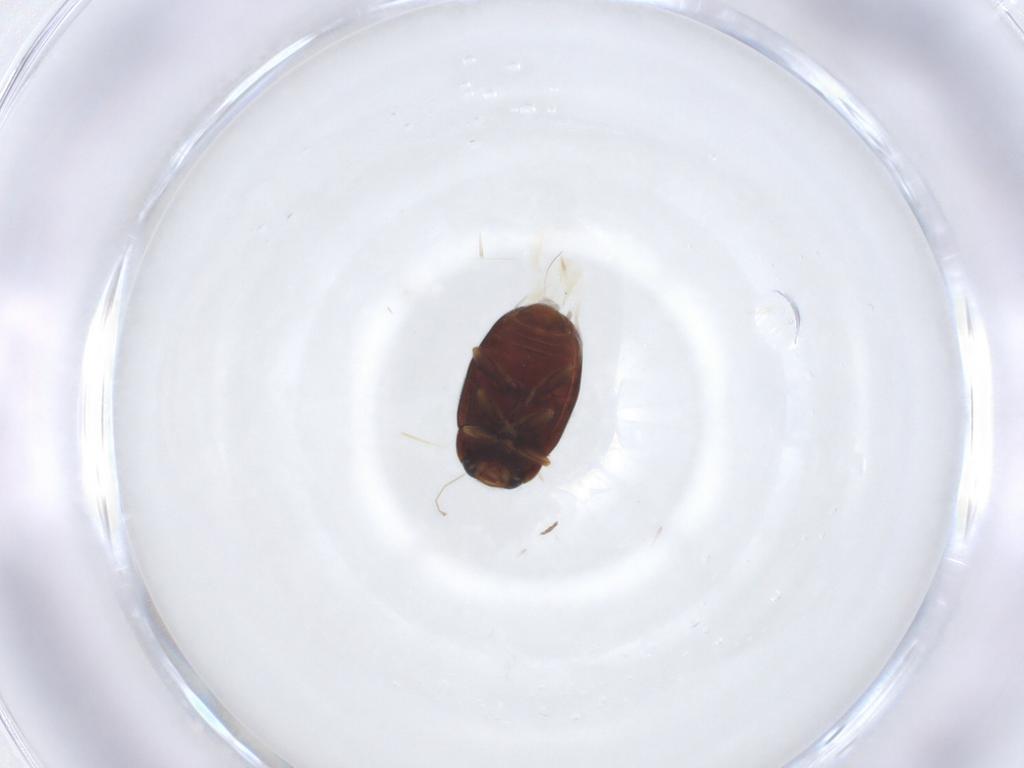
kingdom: Animalia
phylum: Arthropoda
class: Insecta
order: Coleoptera
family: Coccinellidae
